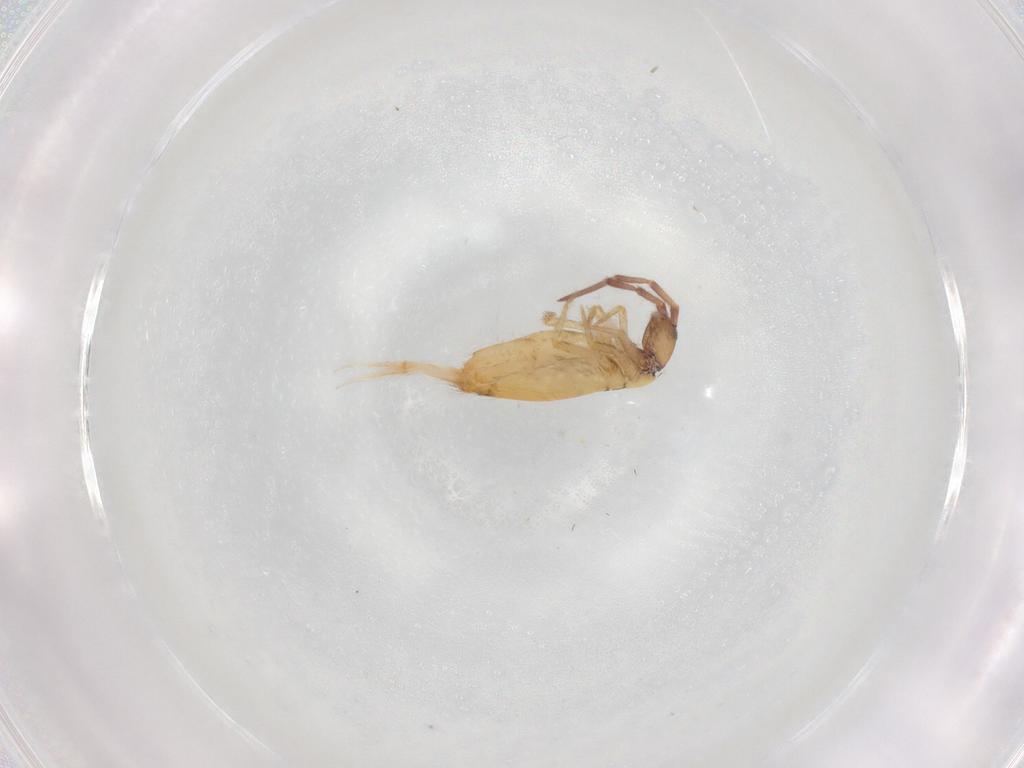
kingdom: Animalia
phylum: Arthropoda
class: Collembola
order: Entomobryomorpha
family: Entomobryidae
